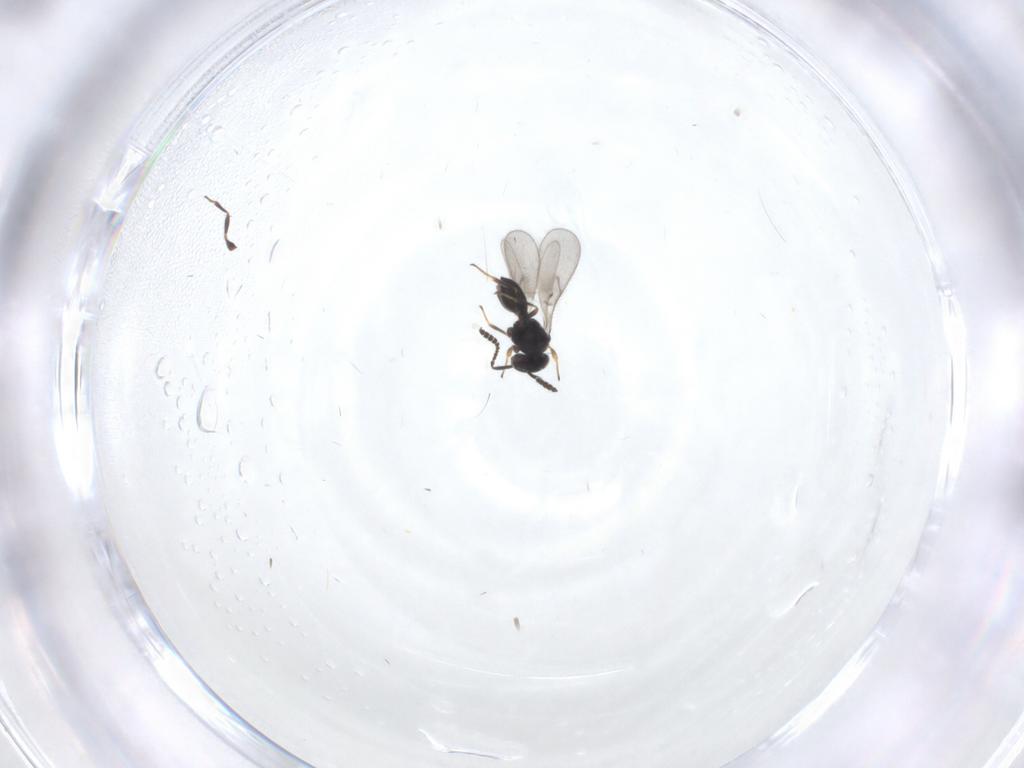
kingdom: Animalia
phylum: Arthropoda
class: Insecta
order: Hymenoptera
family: Scelionidae
